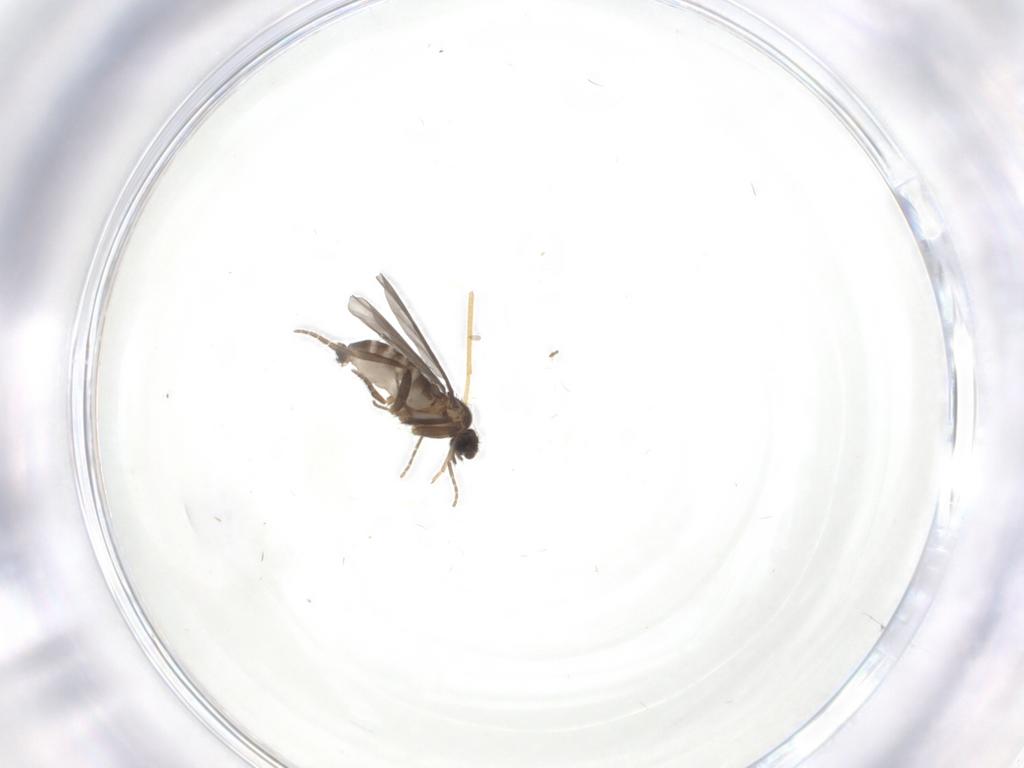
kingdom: Animalia
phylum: Arthropoda
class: Insecta
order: Diptera
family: Chironomidae
